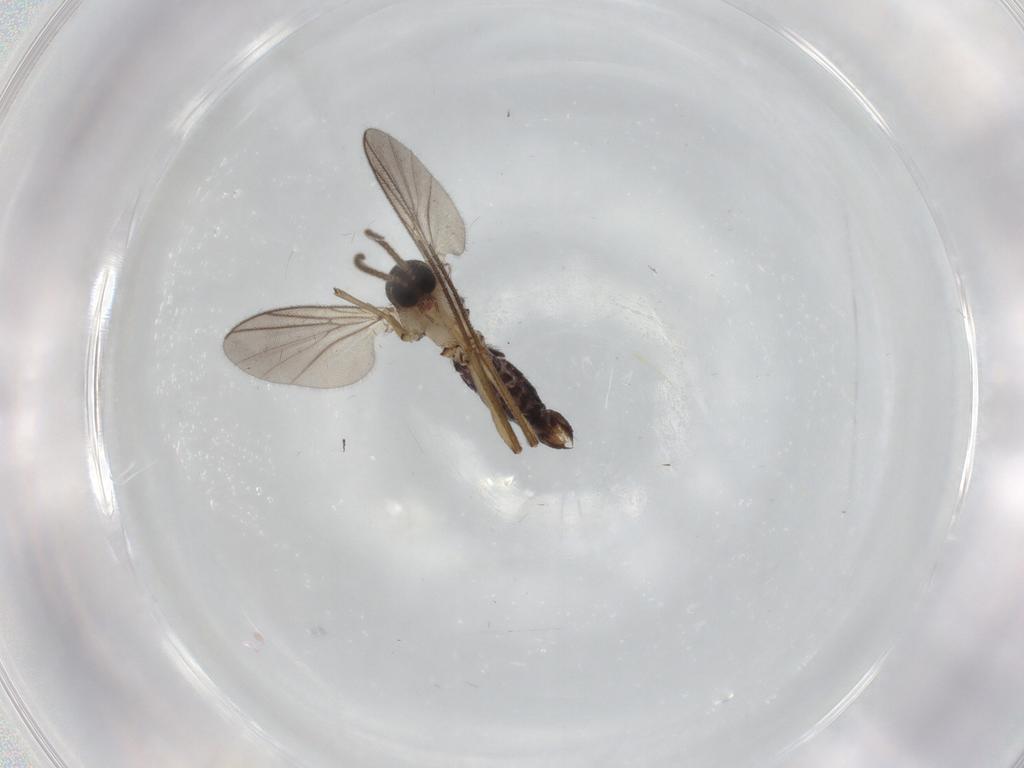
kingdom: Animalia
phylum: Arthropoda
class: Insecta
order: Diptera
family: Mycetophilidae
